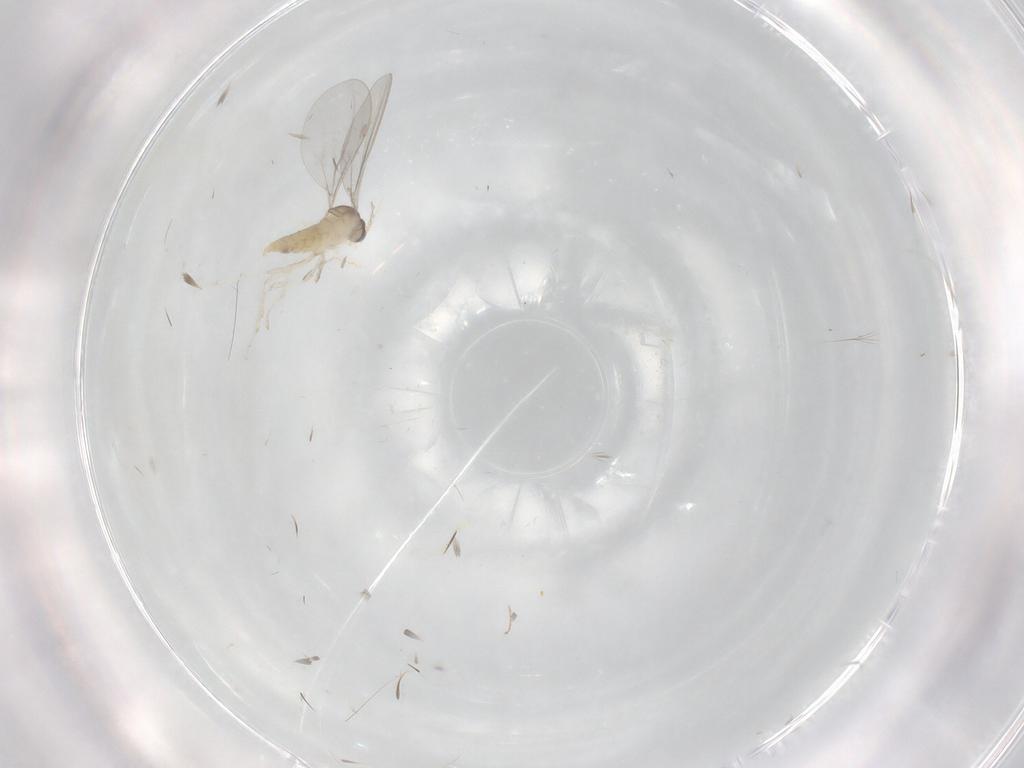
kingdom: Animalia
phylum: Arthropoda
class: Insecta
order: Diptera
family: Cecidomyiidae
